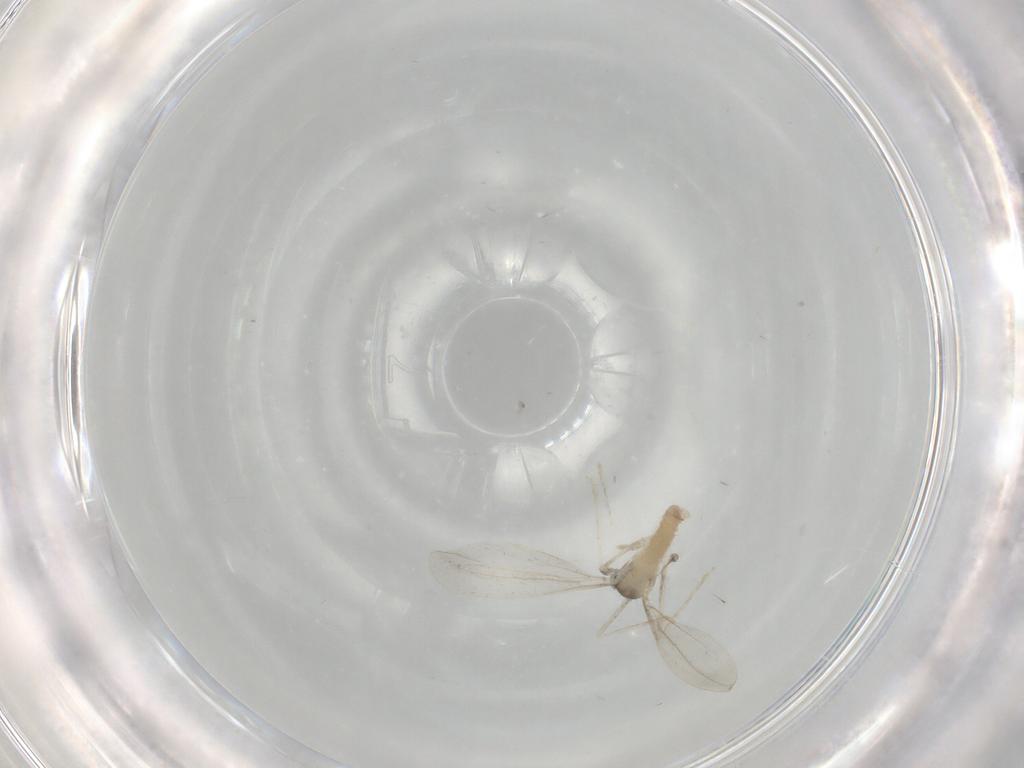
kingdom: Animalia
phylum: Arthropoda
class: Insecta
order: Diptera
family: Cecidomyiidae
